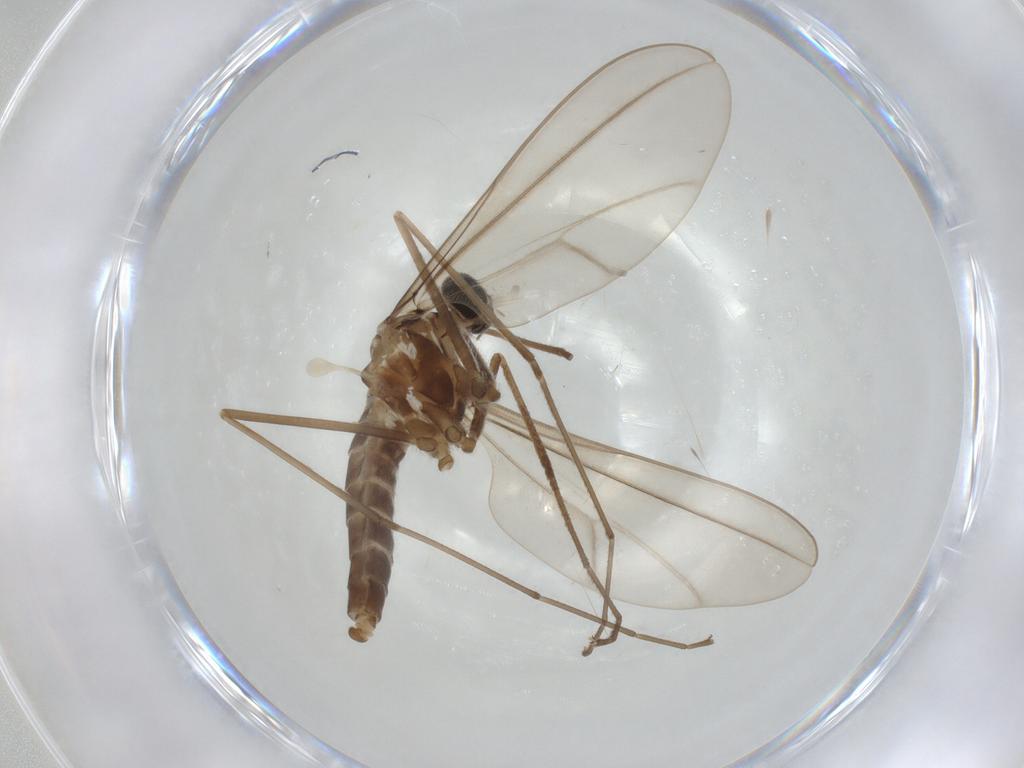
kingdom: Animalia
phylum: Arthropoda
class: Insecta
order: Diptera
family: Cecidomyiidae
